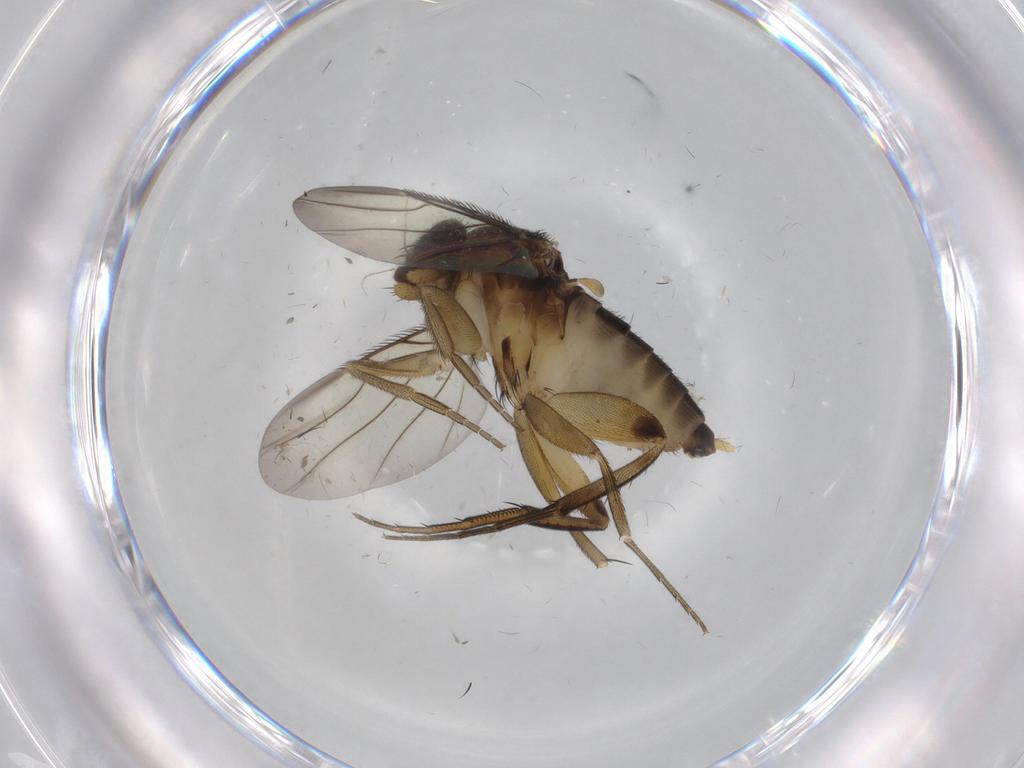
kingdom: Animalia
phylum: Arthropoda
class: Insecta
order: Diptera
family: Phoridae
